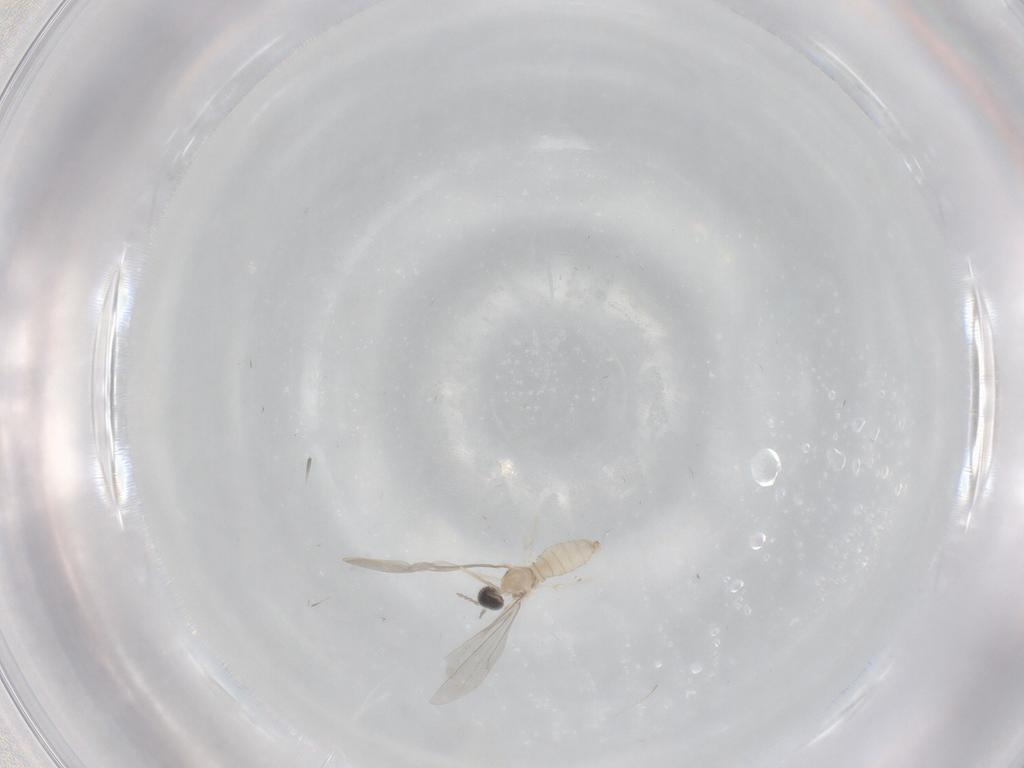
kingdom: Animalia
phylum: Arthropoda
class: Insecta
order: Diptera
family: Cecidomyiidae
